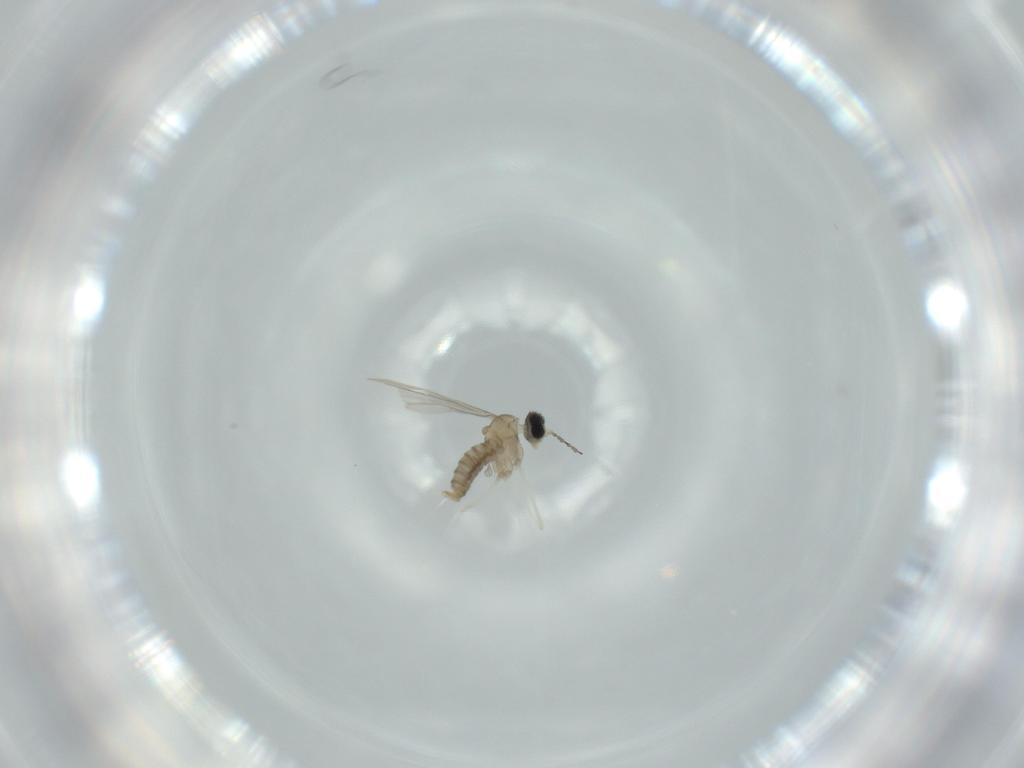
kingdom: Animalia
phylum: Arthropoda
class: Insecta
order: Diptera
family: Cecidomyiidae
